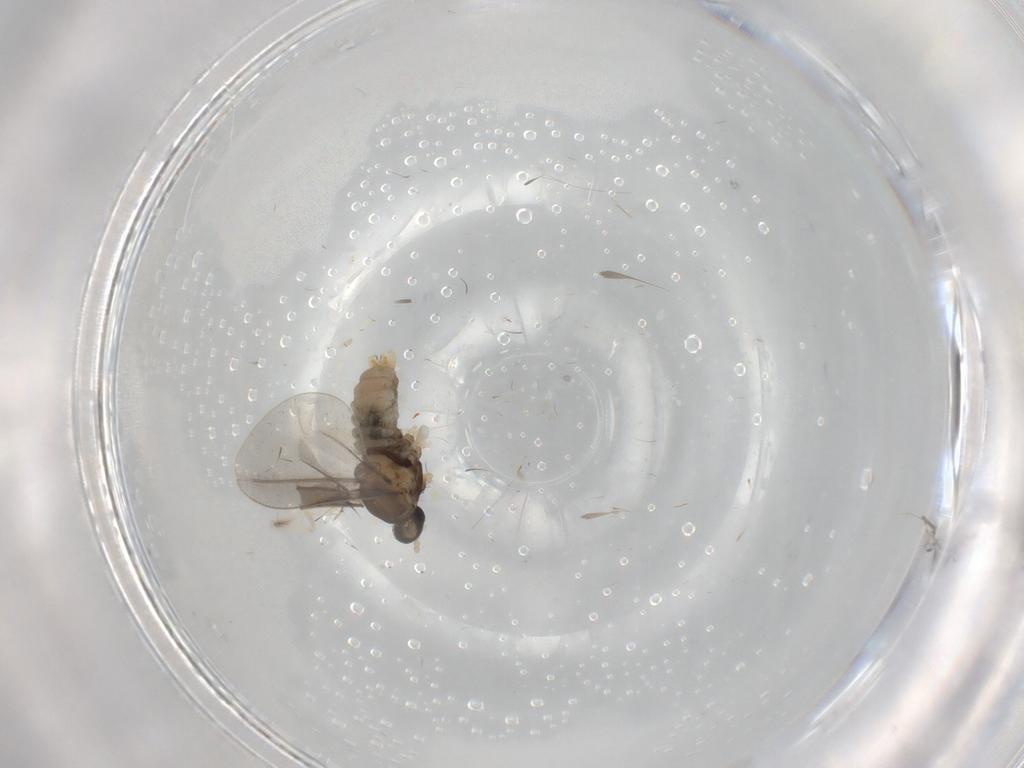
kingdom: Animalia
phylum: Arthropoda
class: Insecta
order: Diptera
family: Cecidomyiidae
